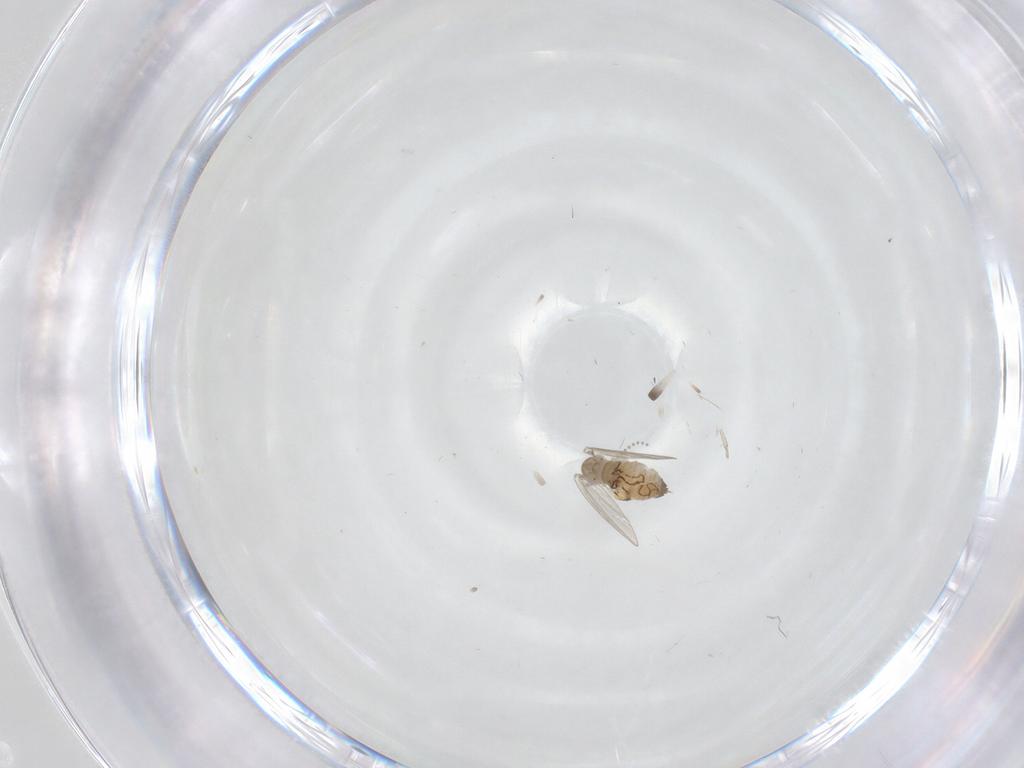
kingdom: Animalia
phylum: Arthropoda
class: Insecta
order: Diptera
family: Psychodidae
